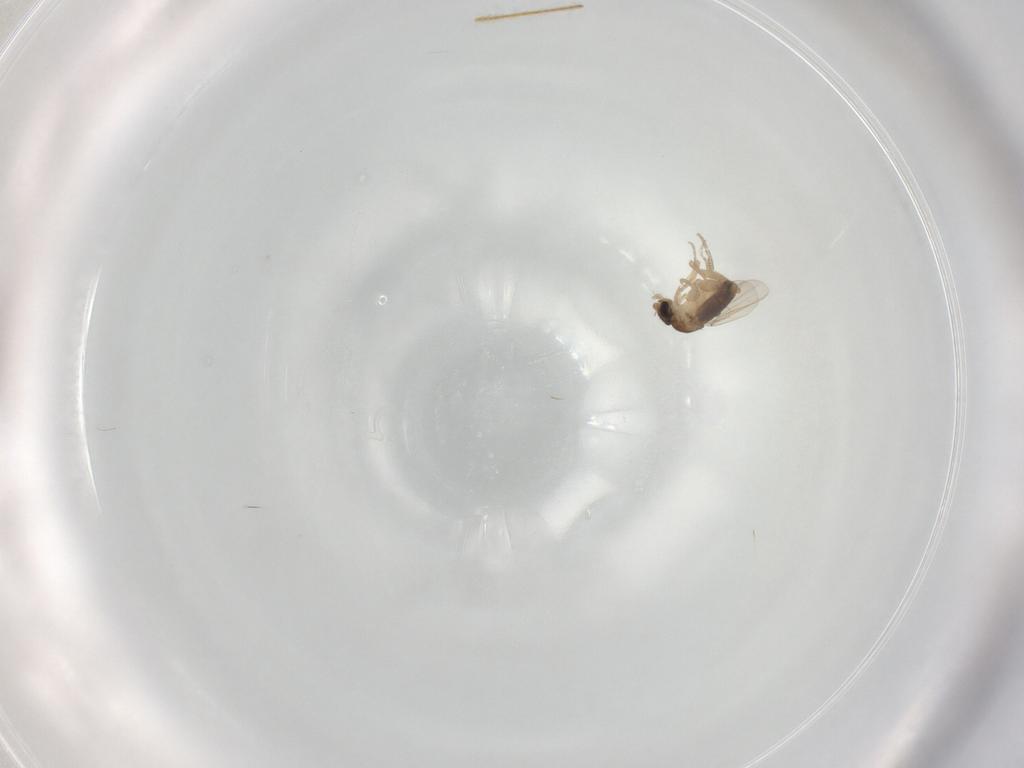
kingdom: Animalia
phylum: Arthropoda
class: Insecta
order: Diptera
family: Phoridae
